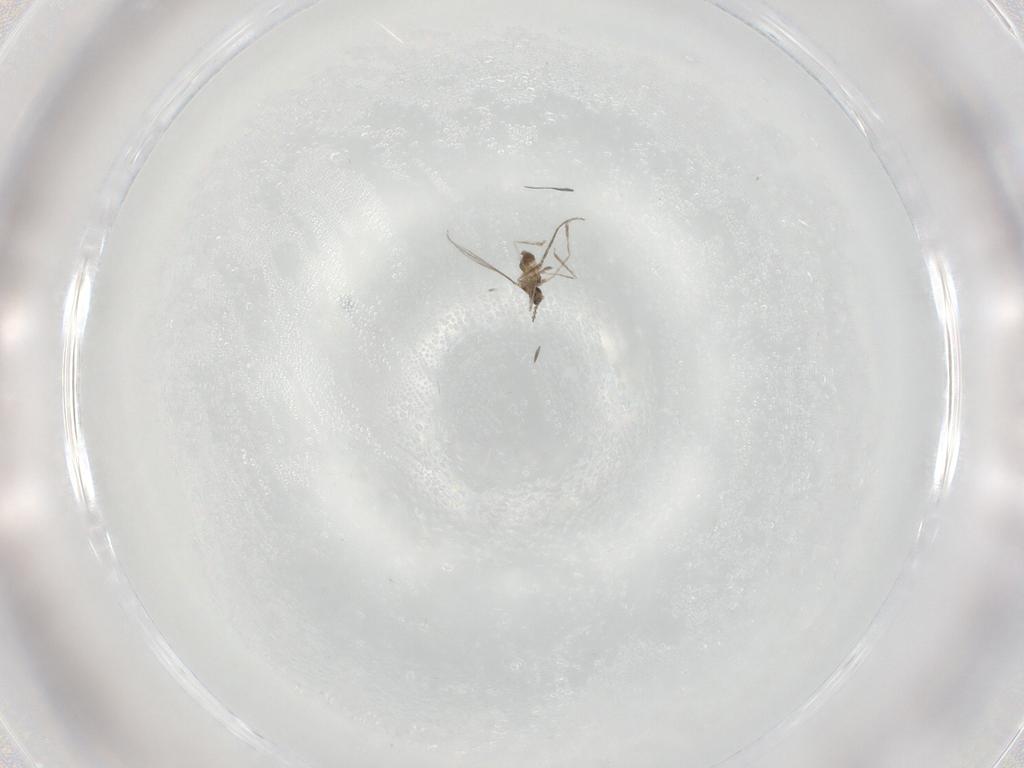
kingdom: Animalia
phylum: Arthropoda
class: Insecta
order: Diptera
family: Cecidomyiidae
